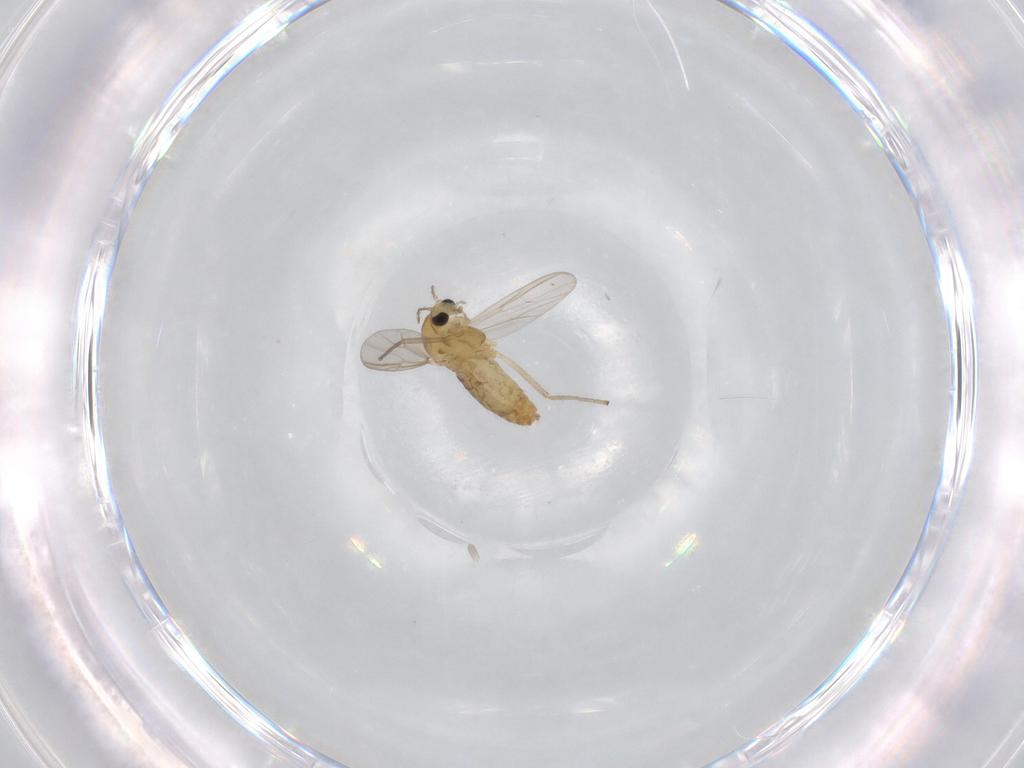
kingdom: Animalia
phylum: Arthropoda
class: Insecta
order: Diptera
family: Chironomidae
